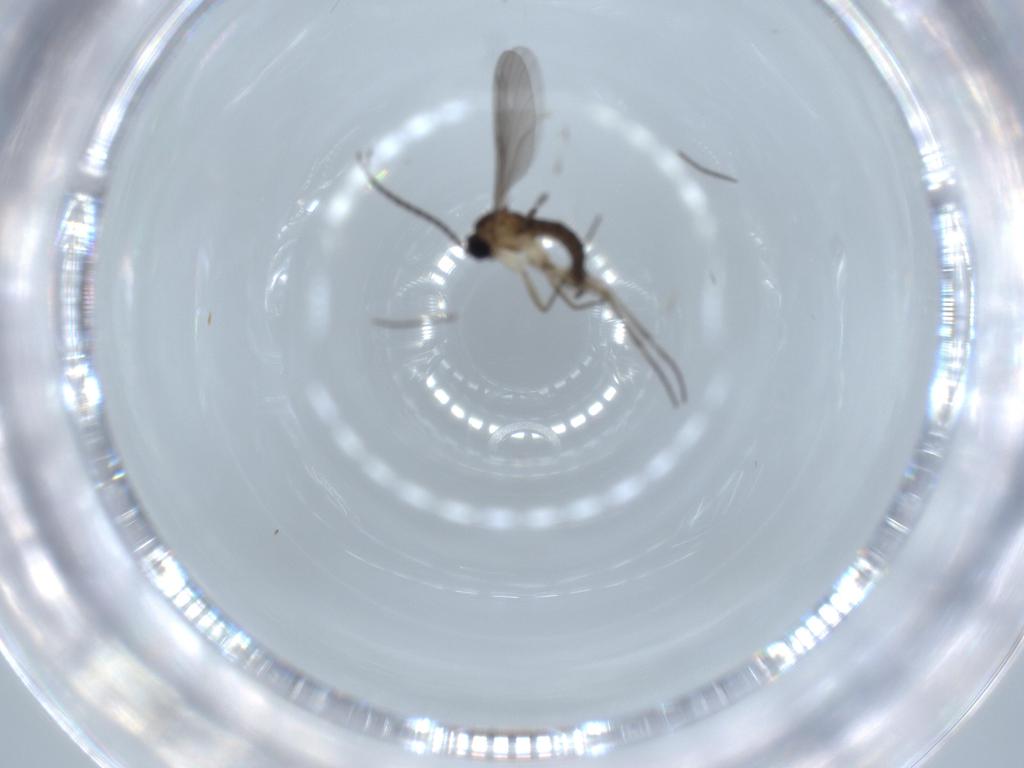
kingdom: Animalia
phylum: Arthropoda
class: Insecta
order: Diptera
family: Sciaridae
